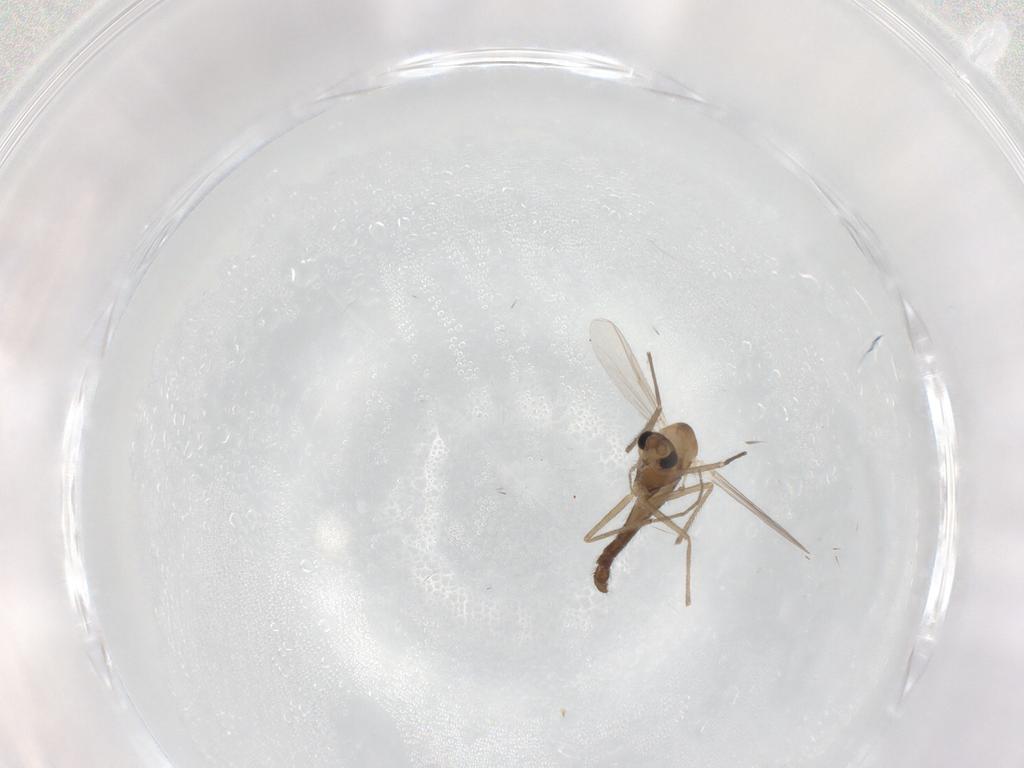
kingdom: Animalia
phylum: Arthropoda
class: Insecta
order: Diptera
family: Chironomidae
